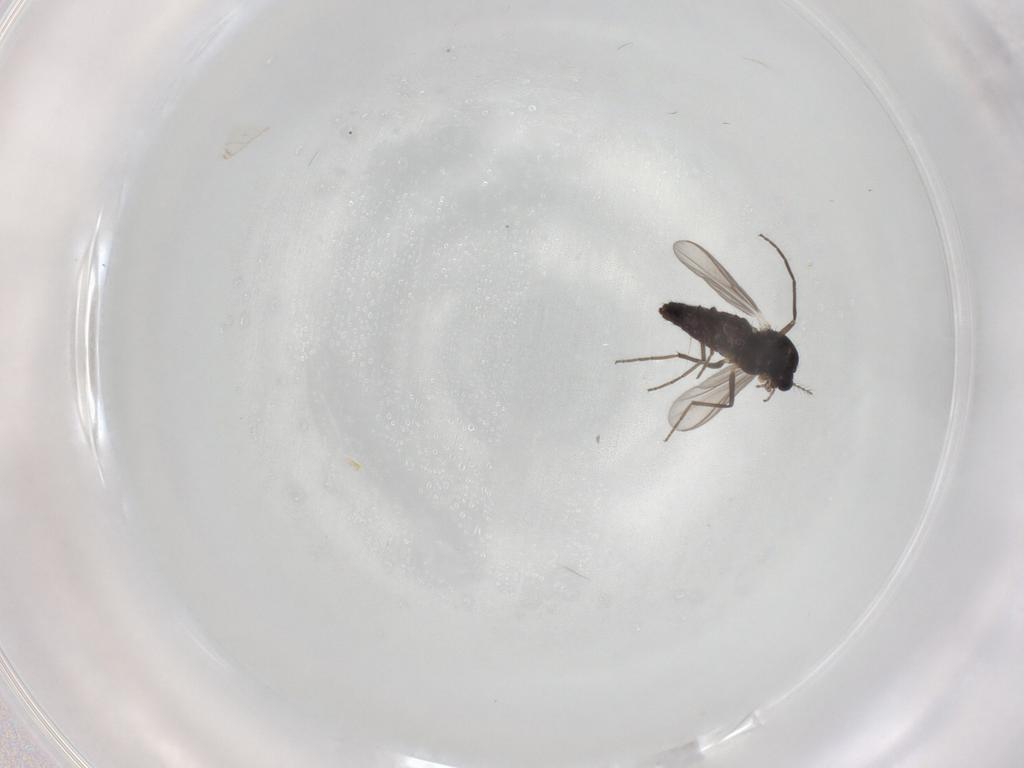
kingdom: Animalia
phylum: Arthropoda
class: Insecta
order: Diptera
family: Chironomidae
